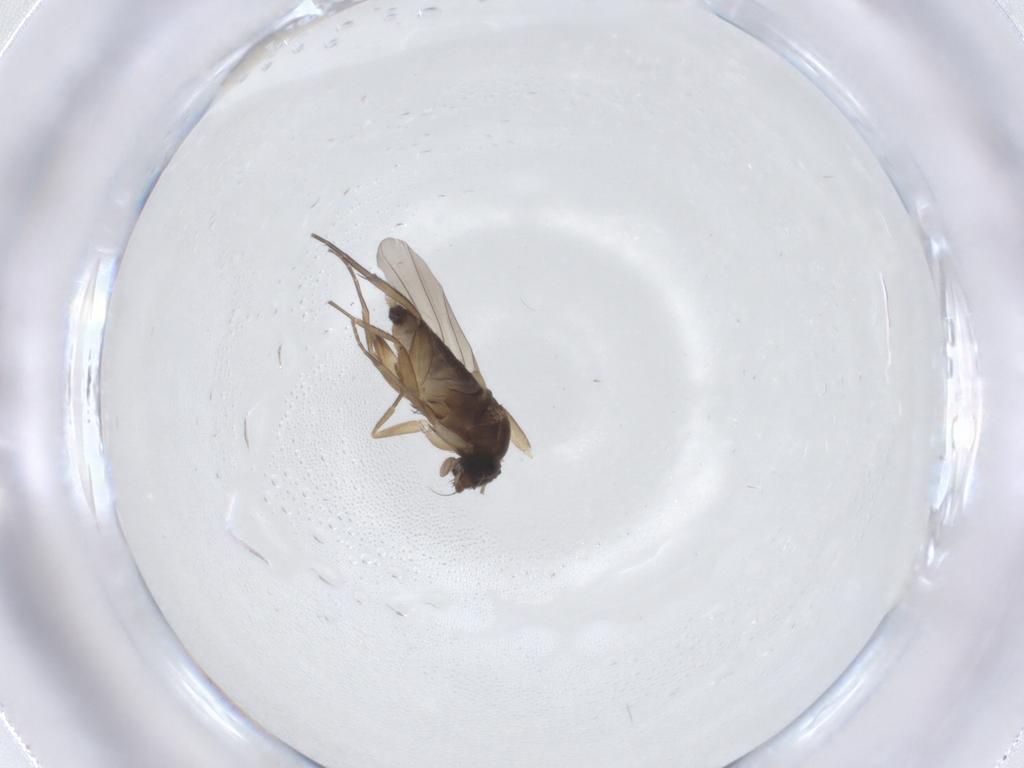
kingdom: Animalia
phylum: Arthropoda
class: Insecta
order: Diptera
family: Phoridae
